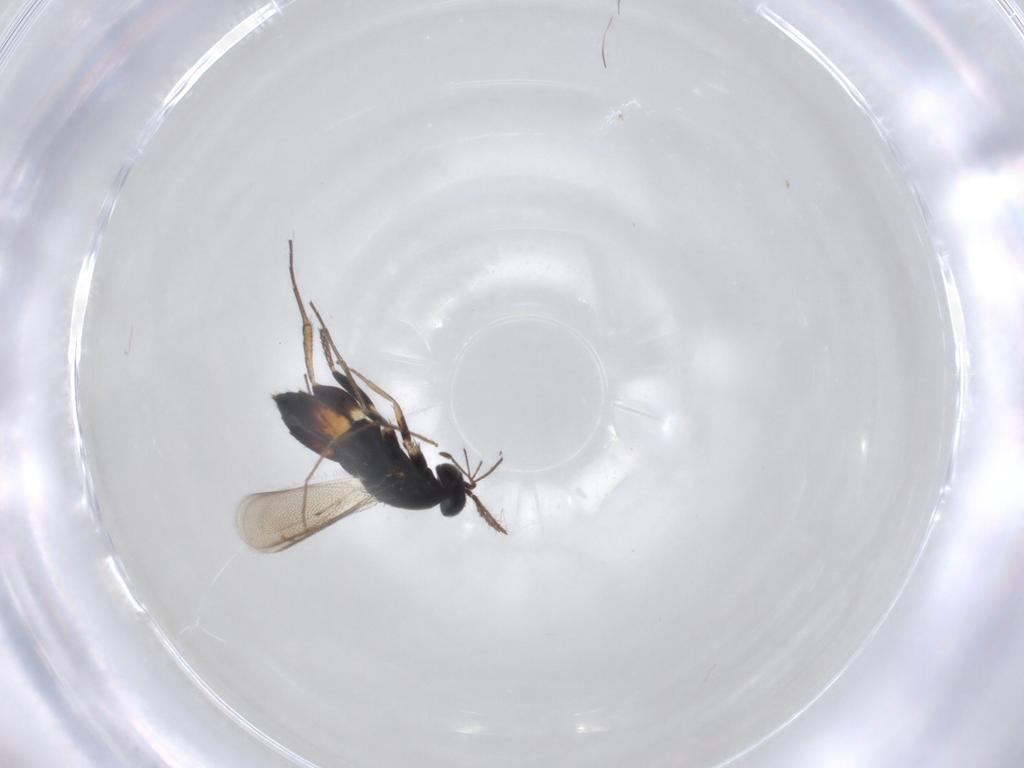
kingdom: Animalia
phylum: Arthropoda
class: Insecta
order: Hymenoptera
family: Eulophidae
